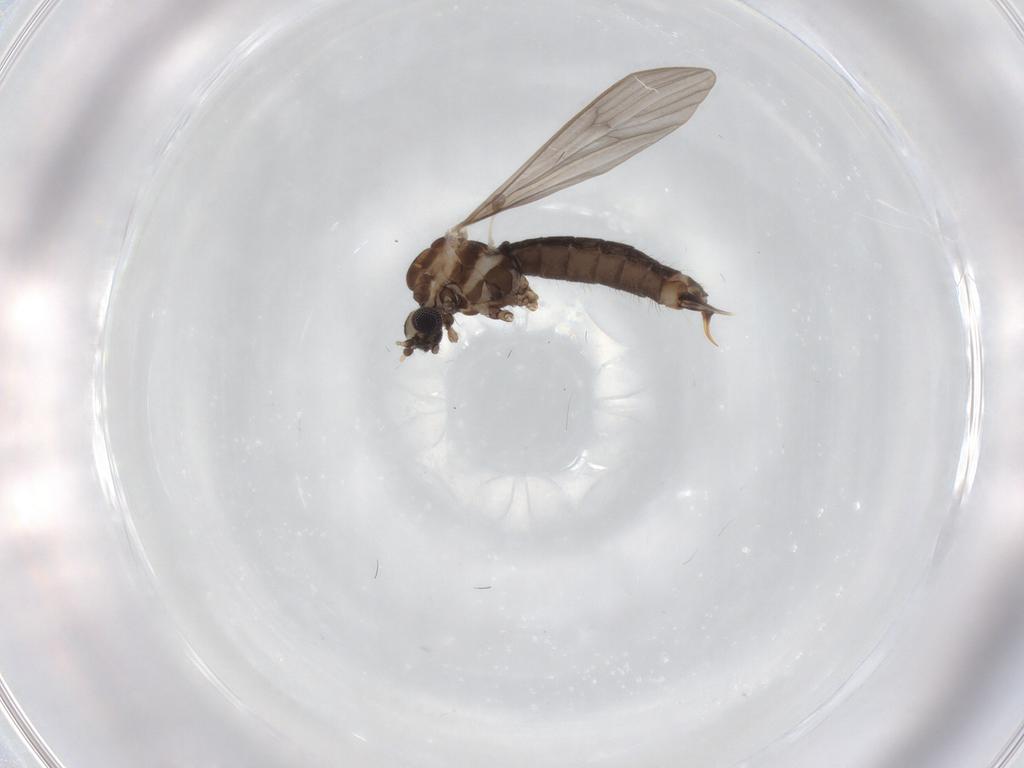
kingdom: Animalia
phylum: Arthropoda
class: Insecta
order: Diptera
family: Limoniidae
